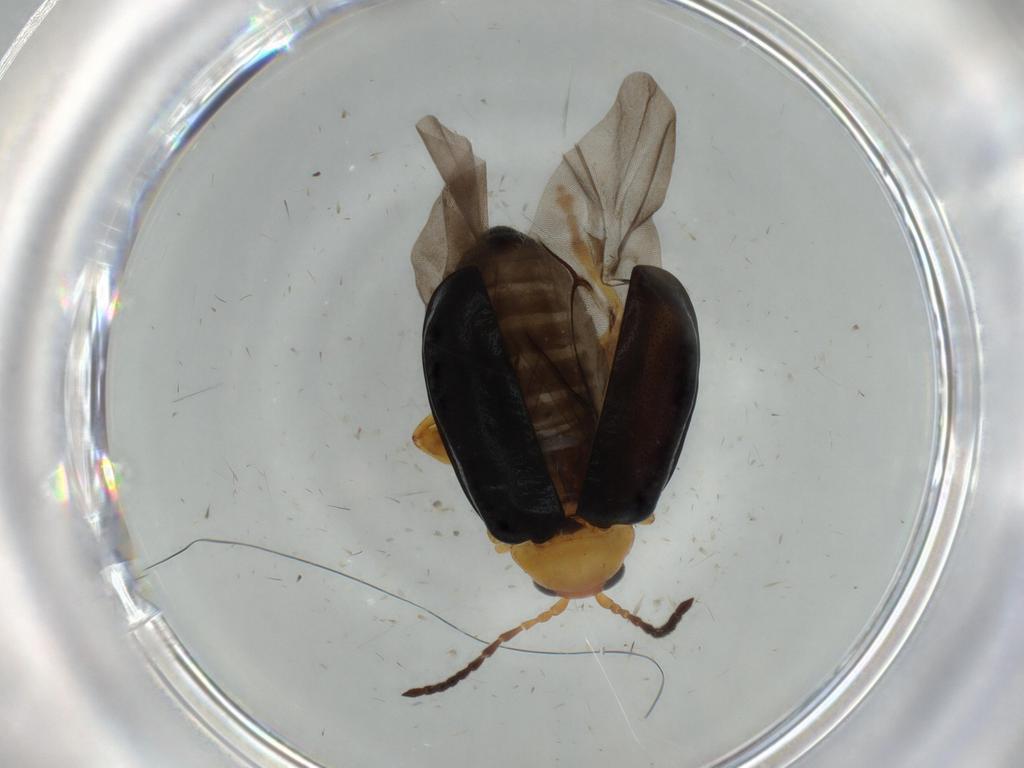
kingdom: Animalia
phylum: Arthropoda
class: Insecta
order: Coleoptera
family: Chrysomelidae
